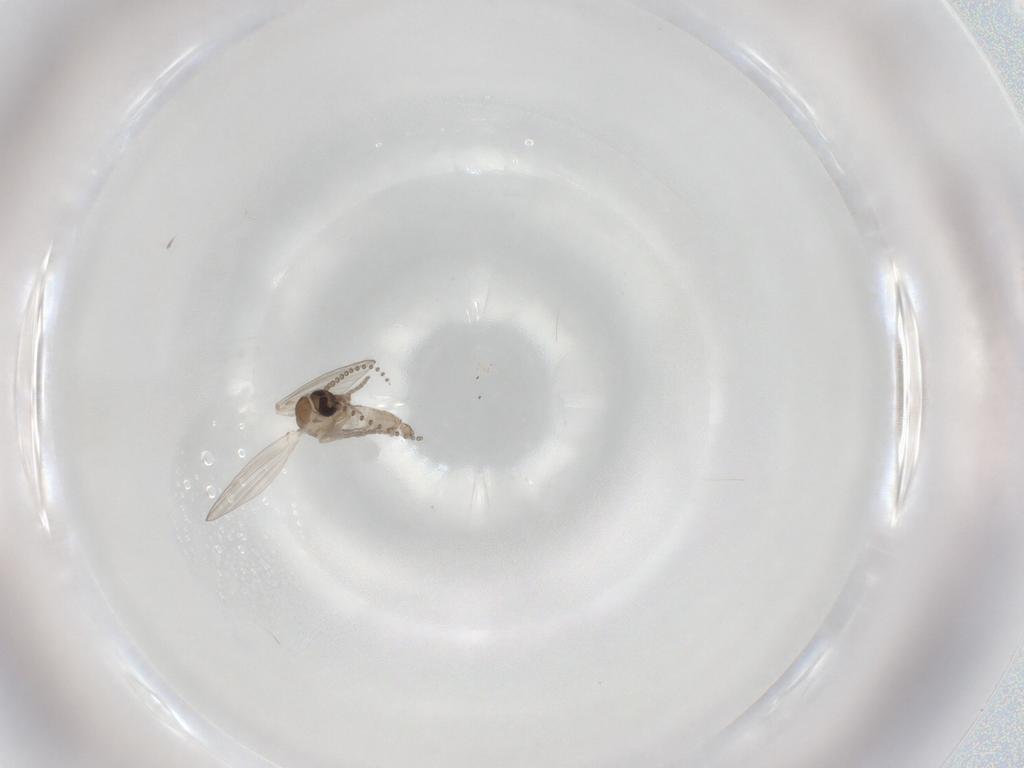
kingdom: Animalia
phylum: Arthropoda
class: Insecta
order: Diptera
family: Psychodidae
